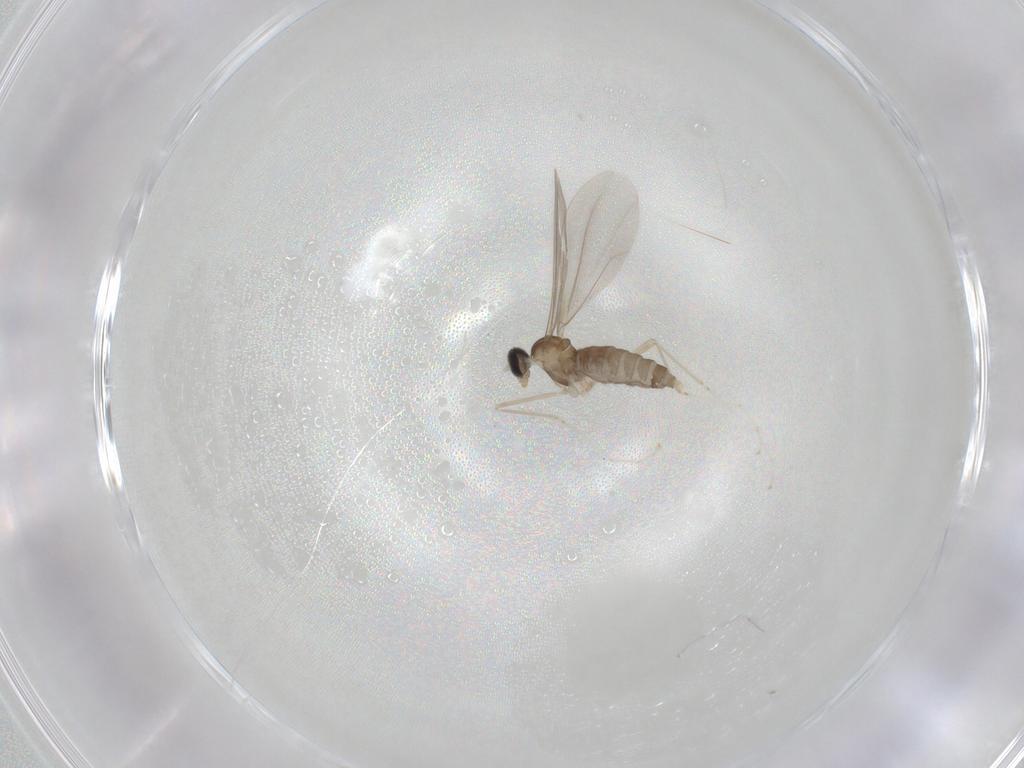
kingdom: Animalia
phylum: Arthropoda
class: Insecta
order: Diptera
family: Cecidomyiidae
